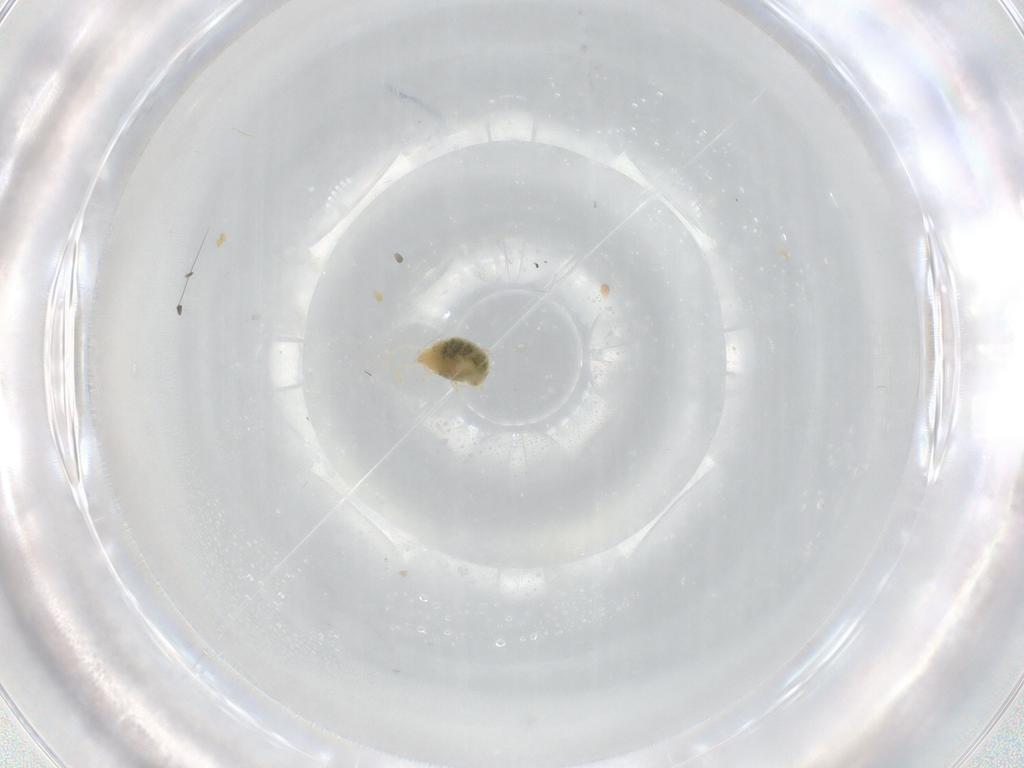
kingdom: Animalia
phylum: Arthropoda
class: Arachnida
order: Trombidiformes
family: Tetranychidae
